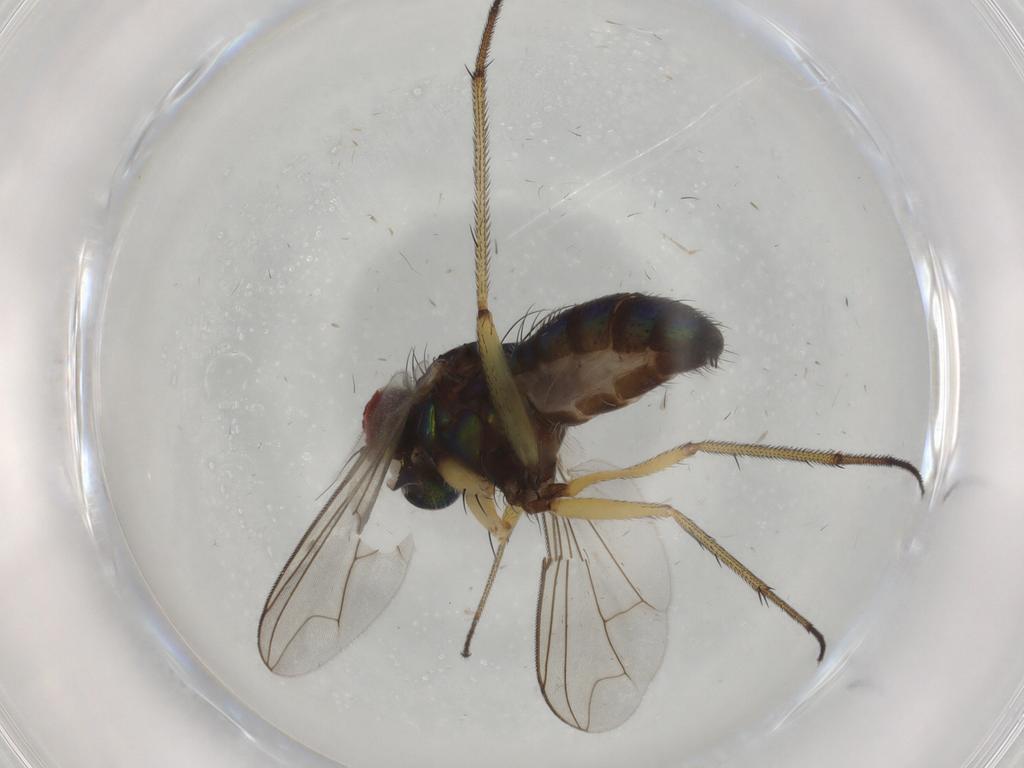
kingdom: Animalia
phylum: Arthropoda
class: Insecta
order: Diptera
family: Dolichopodidae
